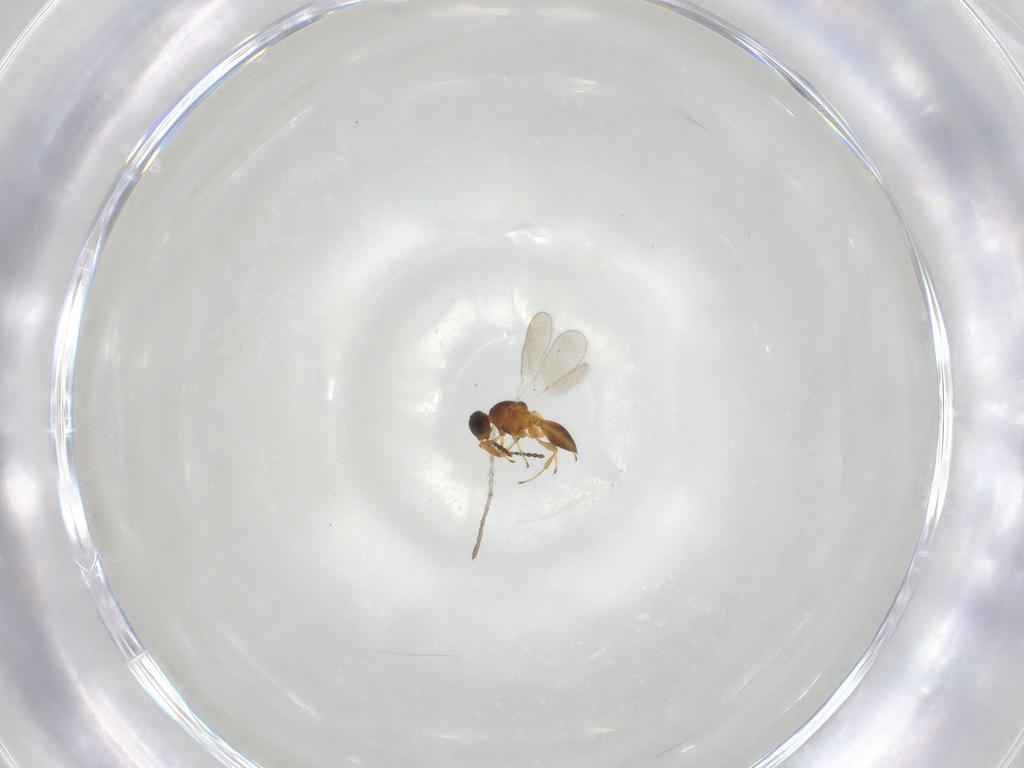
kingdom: Animalia
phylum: Arthropoda
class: Insecta
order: Hymenoptera
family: Platygastridae
